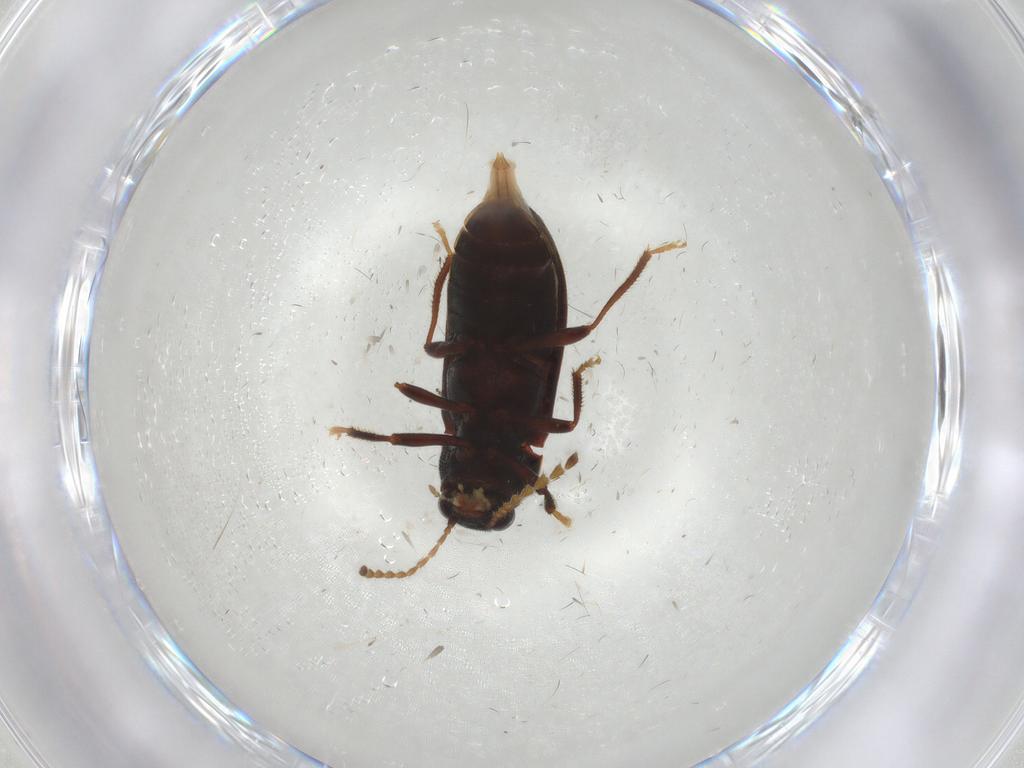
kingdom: Animalia
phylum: Arthropoda
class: Insecta
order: Coleoptera
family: Ptilodactylidae
